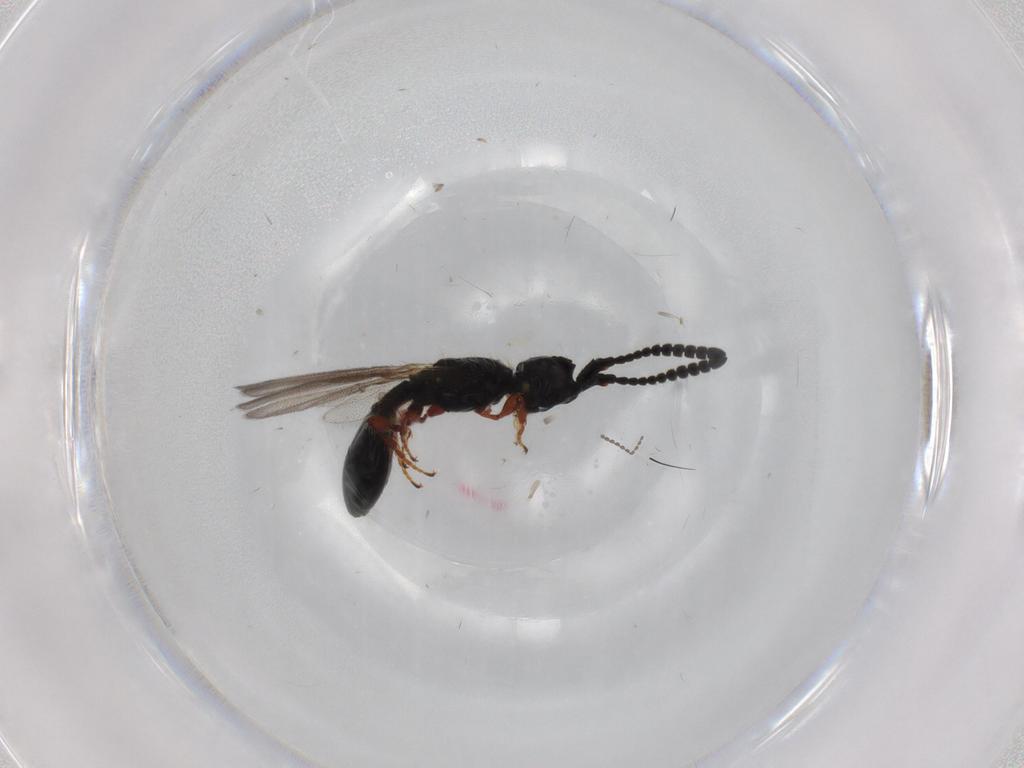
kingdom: Animalia
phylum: Arthropoda
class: Insecta
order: Hymenoptera
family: Diapriidae
